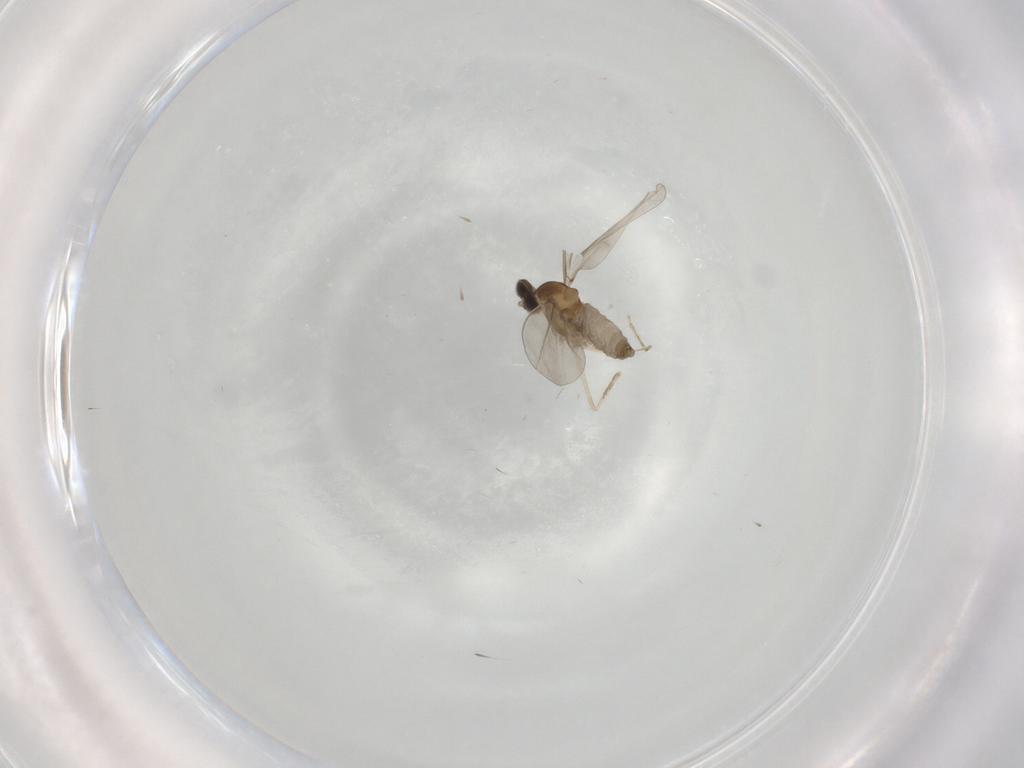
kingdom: Animalia
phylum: Arthropoda
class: Insecta
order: Diptera
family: Cecidomyiidae
